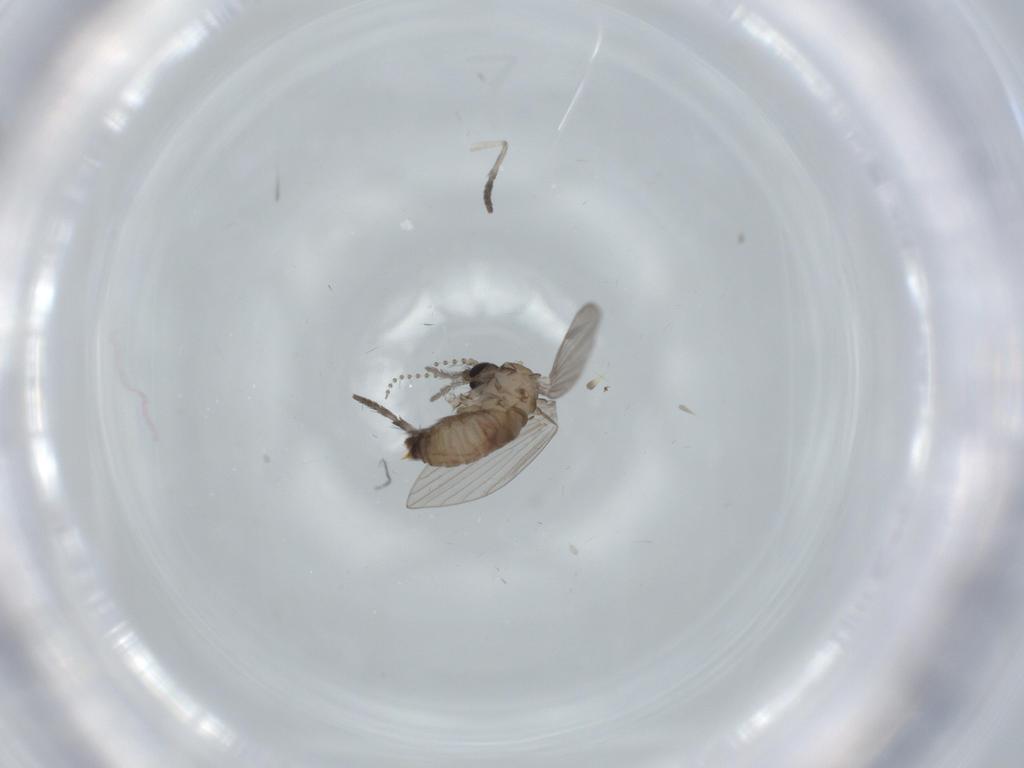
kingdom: Animalia
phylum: Arthropoda
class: Insecta
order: Diptera
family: Psychodidae
